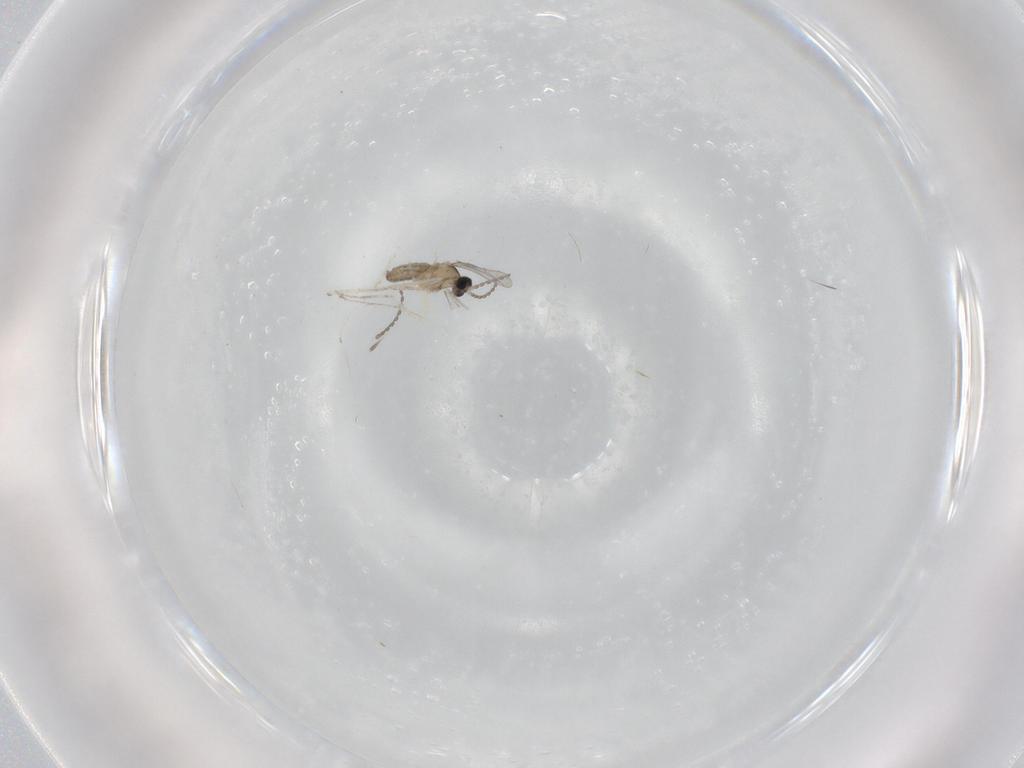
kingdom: Animalia
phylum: Arthropoda
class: Insecta
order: Diptera
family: Cecidomyiidae
